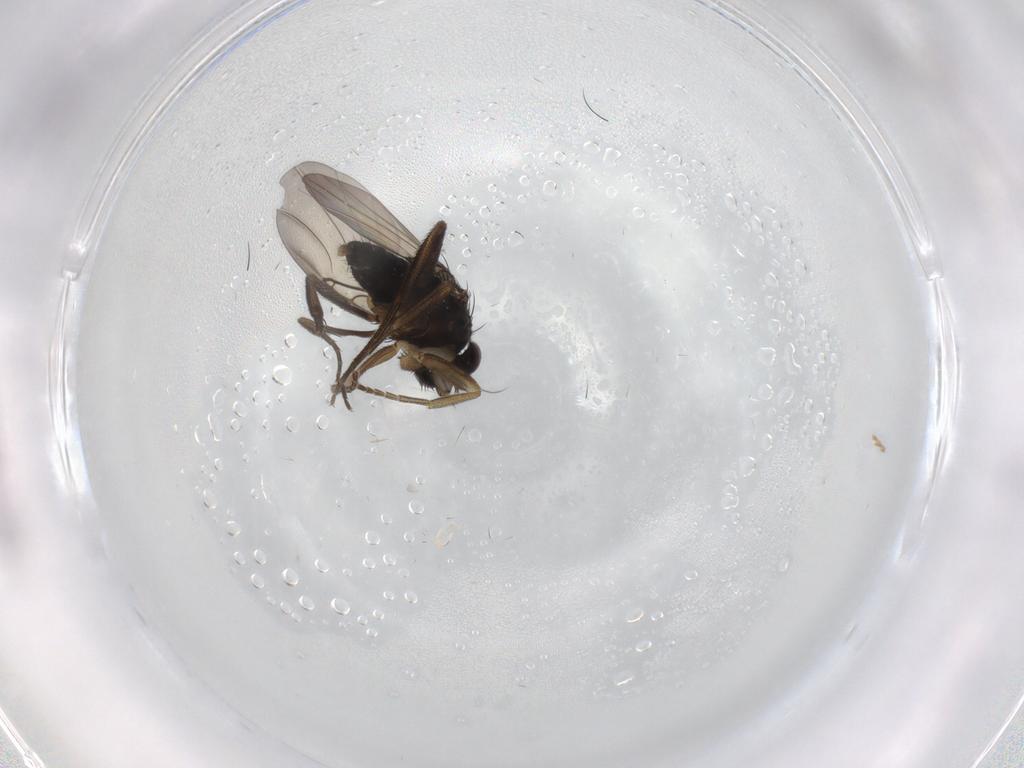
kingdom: Animalia
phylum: Arthropoda
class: Insecta
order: Diptera
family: Phoridae
